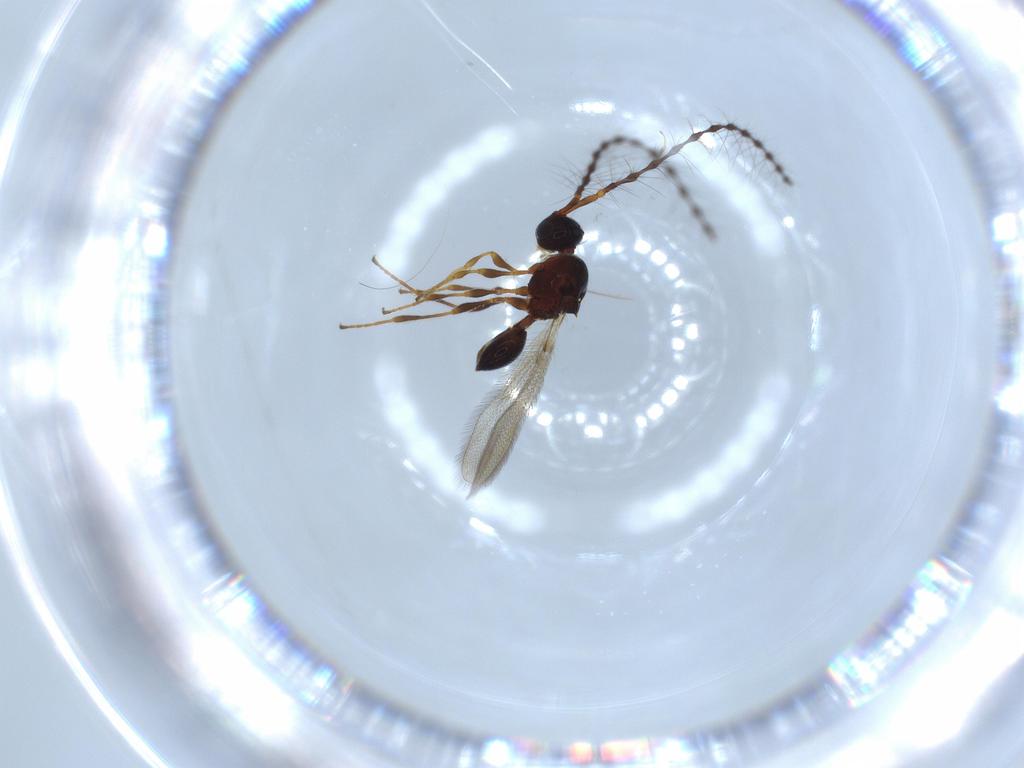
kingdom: Animalia
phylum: Arthropoda
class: Insecta
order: Hymenoptera
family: Diapriidae
